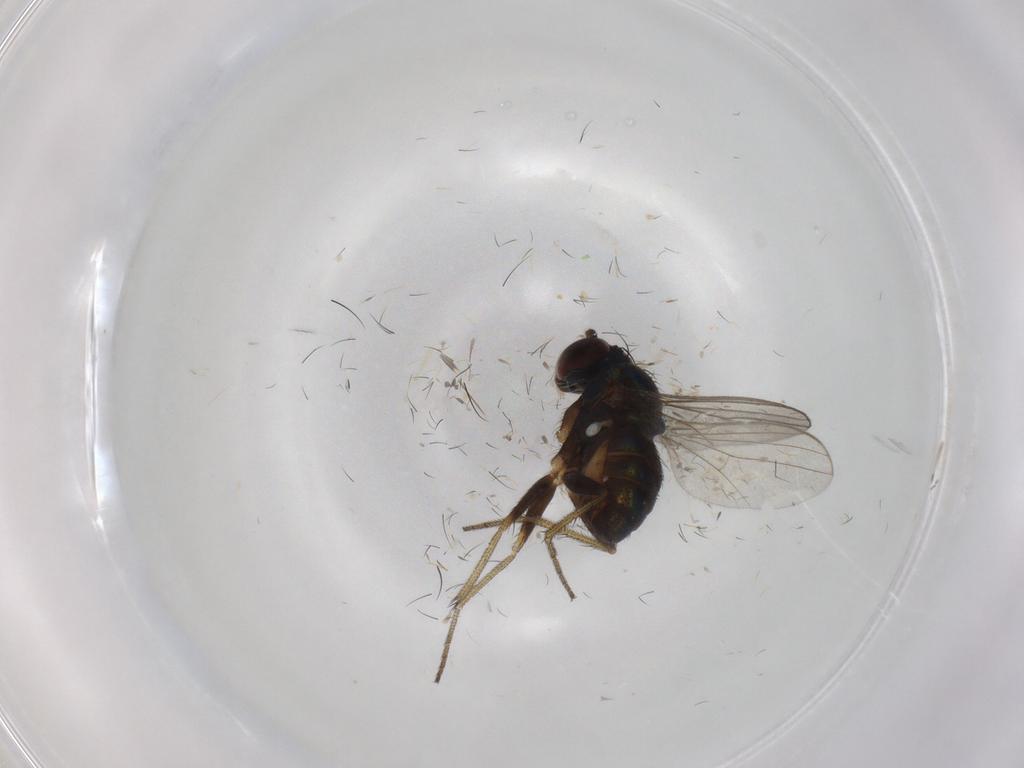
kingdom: Animalia
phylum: Arthropoda
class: Insecta
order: Diptera
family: Dolichopodidae
